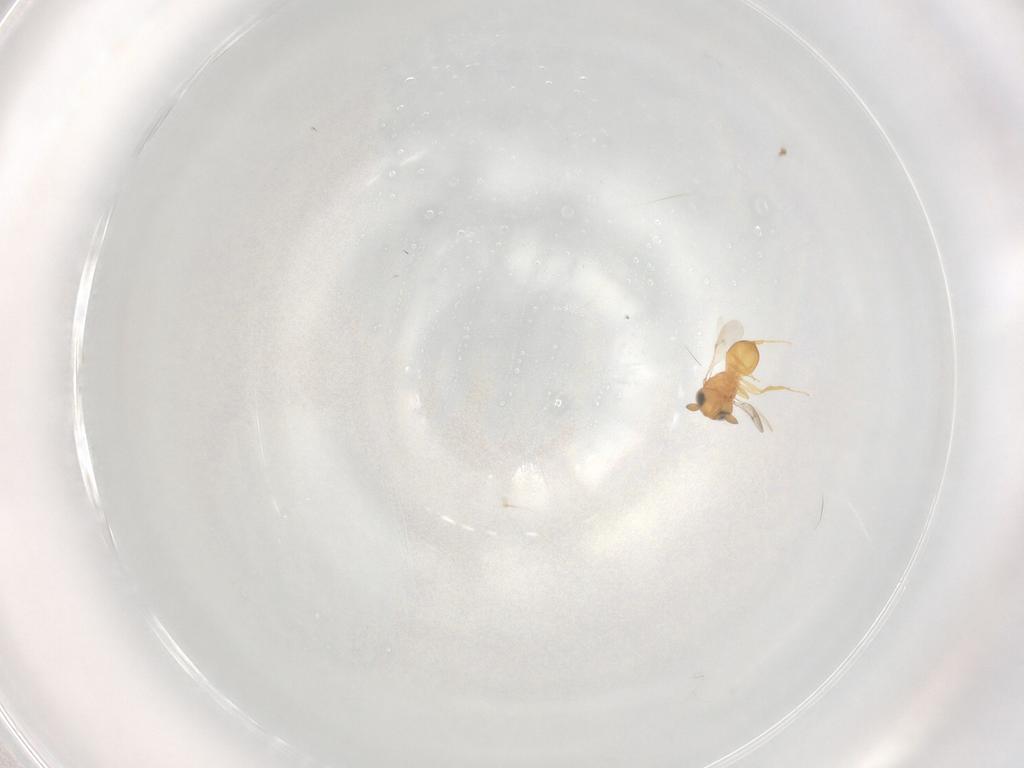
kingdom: Animalia
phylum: Arthropoda
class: Insecta
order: Hymenoptera
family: Scelionidae
